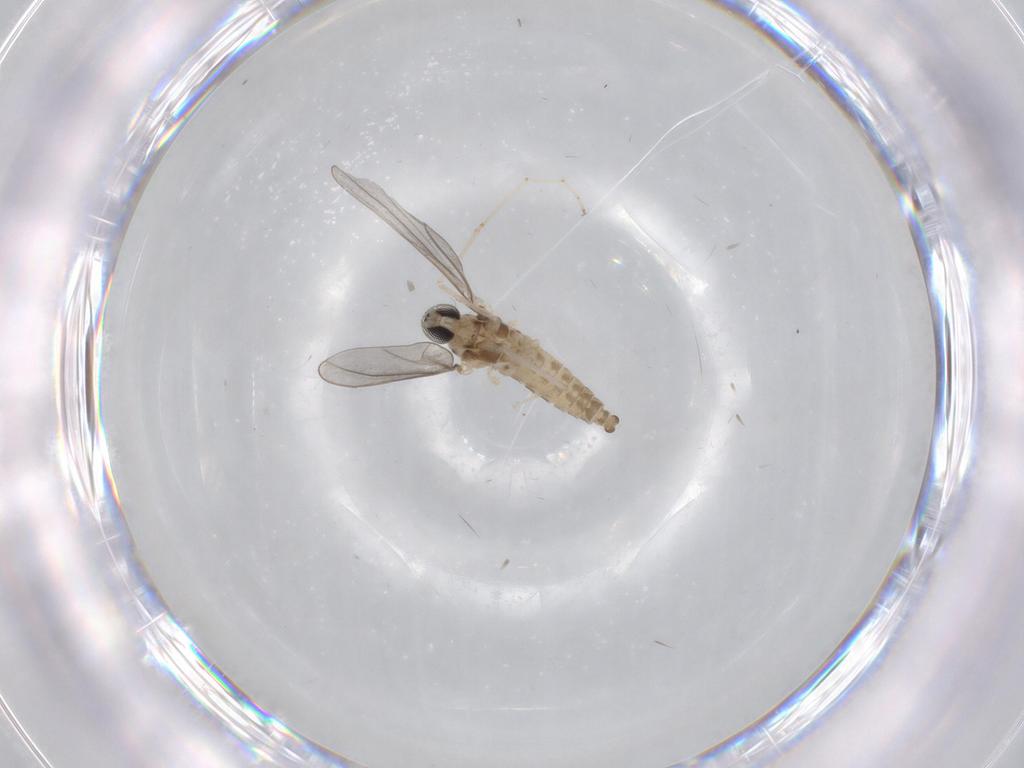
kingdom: Animalia
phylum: Arthropoda
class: Insecta
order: Diptera
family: Cecidomyiidae
